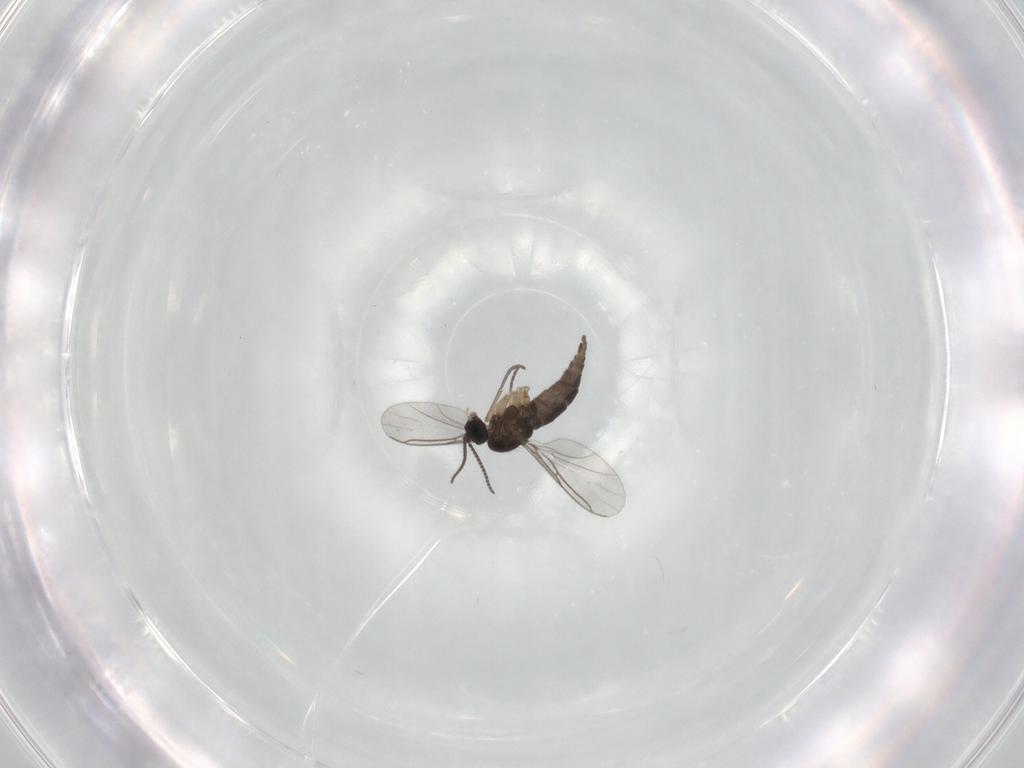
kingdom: Animalia
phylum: Arthropoda
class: Insecta
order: Diptera
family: Sciaridae
